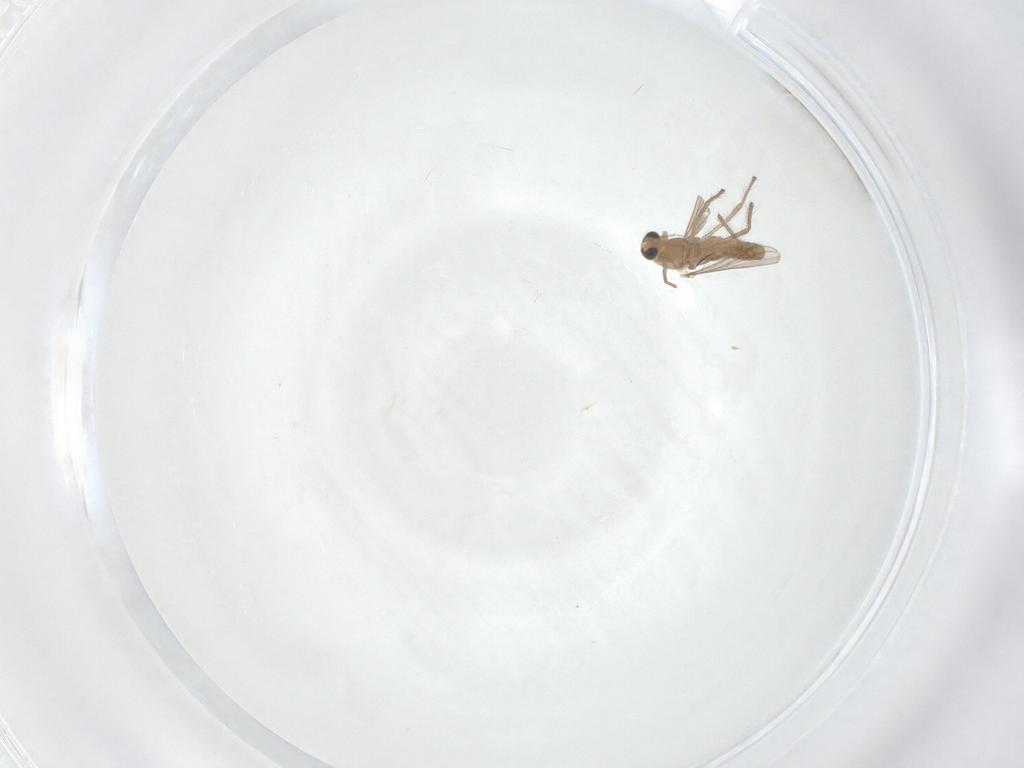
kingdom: Animalia
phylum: Arthropoda
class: Insecta
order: Diptera
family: Chironomidae
